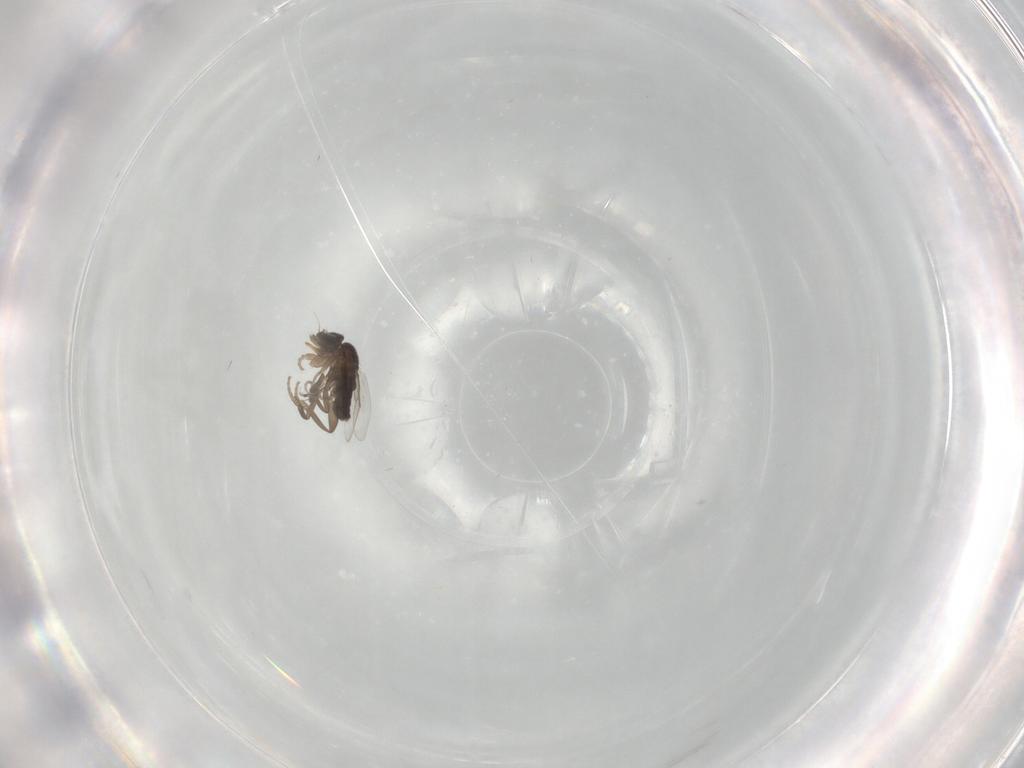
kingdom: Animalia
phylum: Arthropoda
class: Insecta
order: Diptera
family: Phoridae
